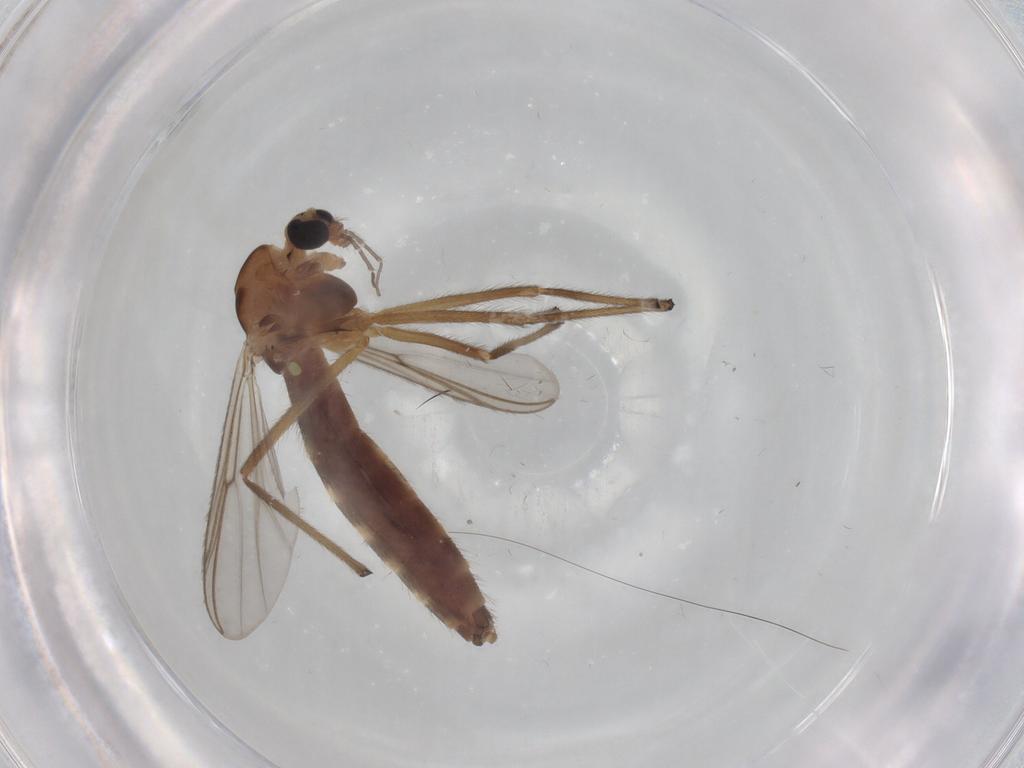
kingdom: Animalia
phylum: Arthropoda
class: Insecta
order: Diptera
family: Chironomidae
